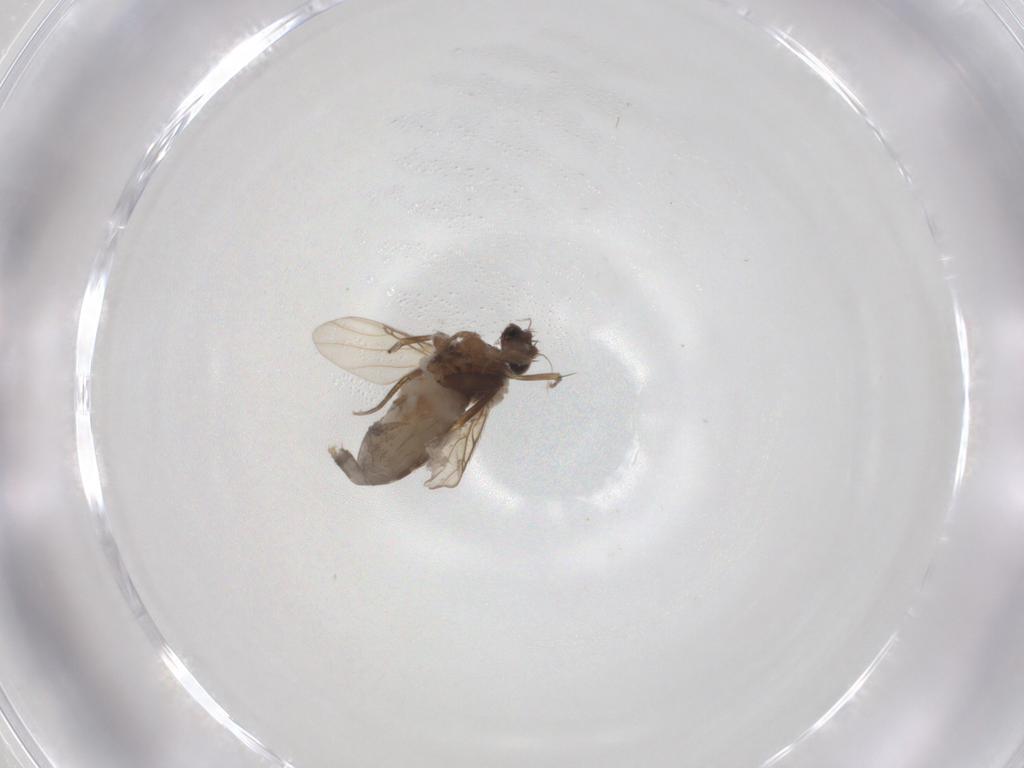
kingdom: Animalia
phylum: Arthropoda
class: Insecta
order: Diptera
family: Phoridae
